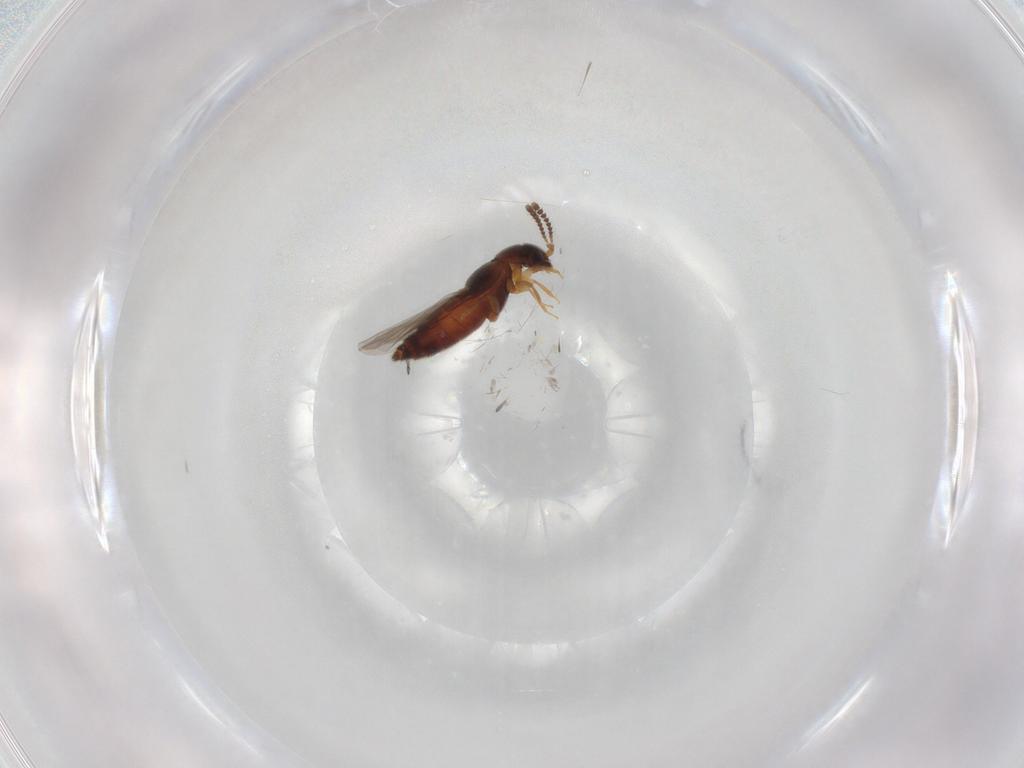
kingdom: Animalia
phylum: Arthropoda
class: Insecta
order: Coleoptera
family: Staphylinidae
